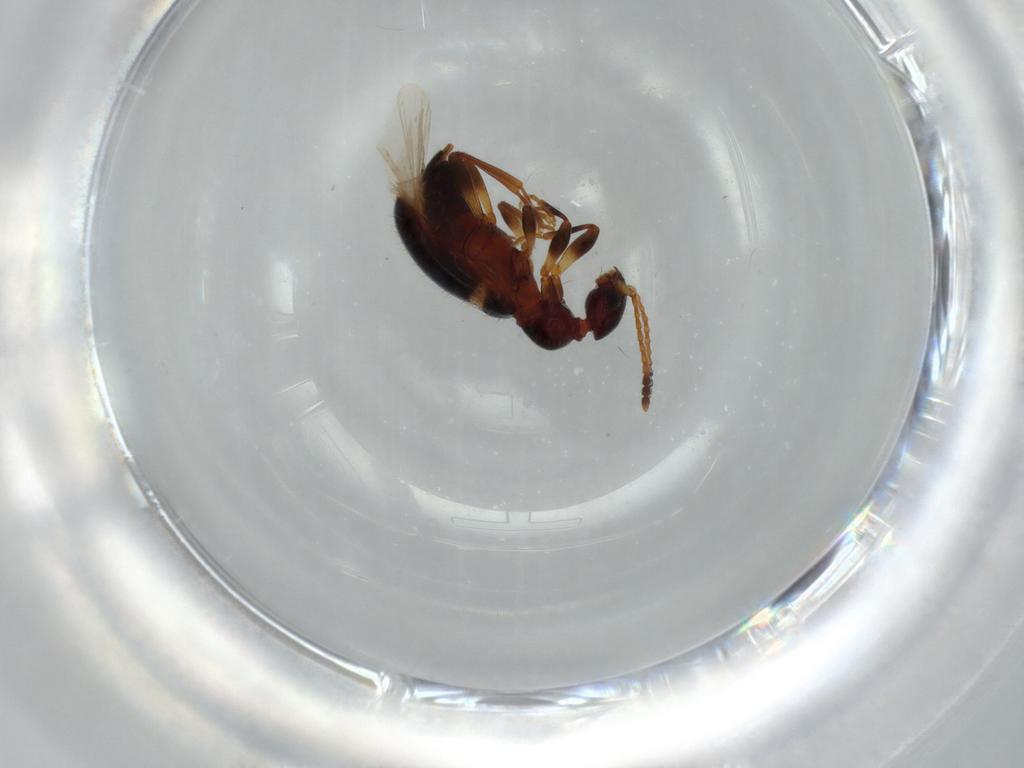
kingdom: Animalia
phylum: Arthropoda
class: Insecta
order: Coleoptera
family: Anthicidae
